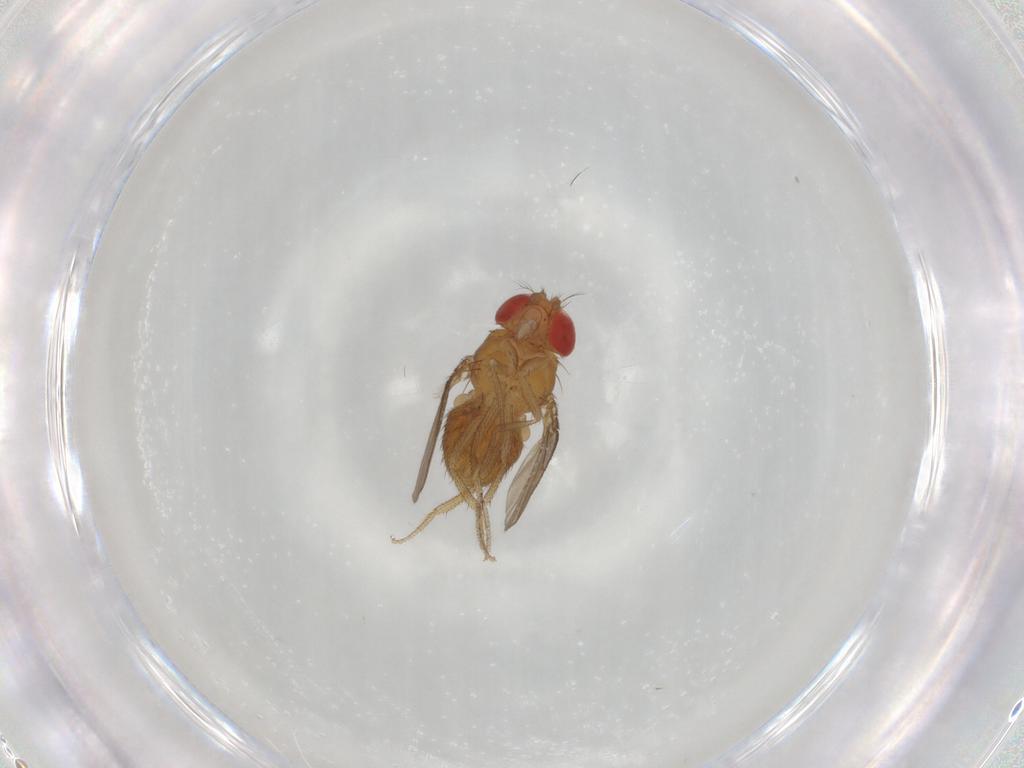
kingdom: Animalia
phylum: Arthropoda
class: Insecta
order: Diptera
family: Drosophilidae
